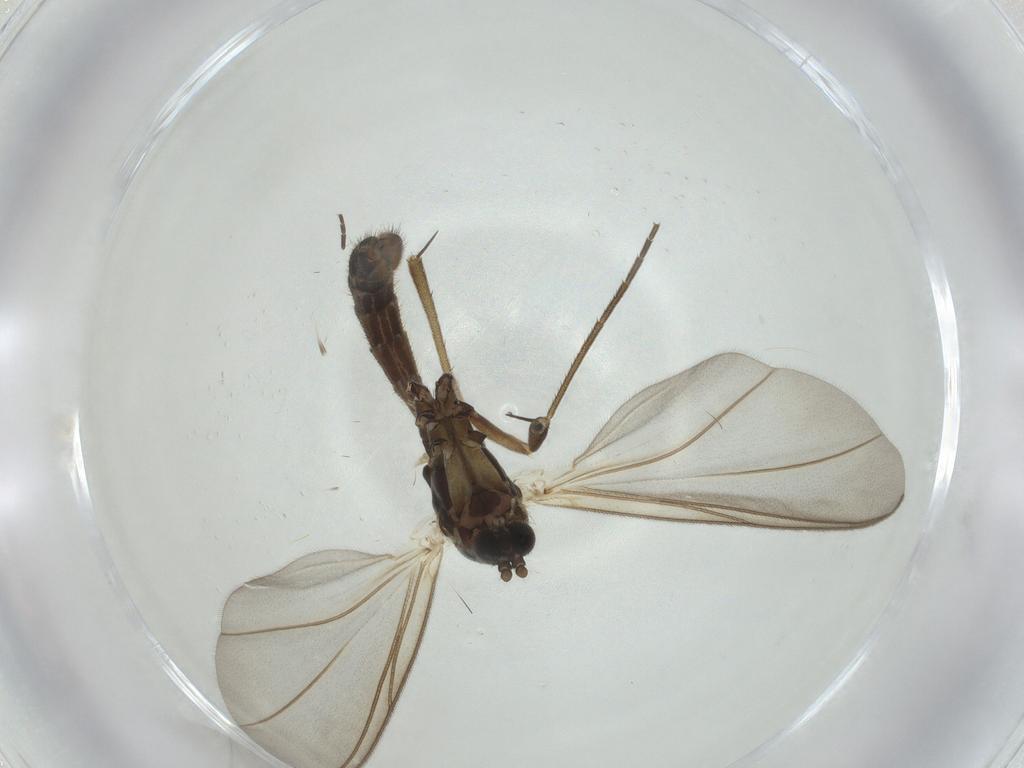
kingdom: Animalia
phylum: Arthropoda
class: Insecta
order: Diptera
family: Mycetophilidae
